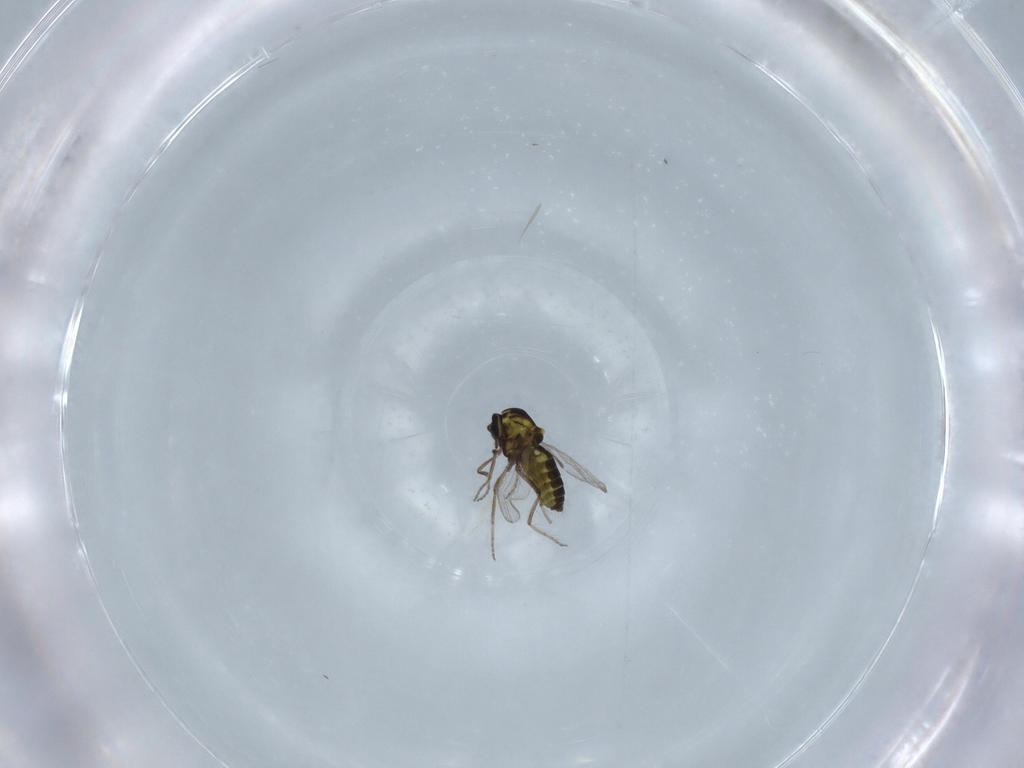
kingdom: Animalia
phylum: Arthropoda
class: Insecta
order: Diptera
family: Ceratopogonidae
